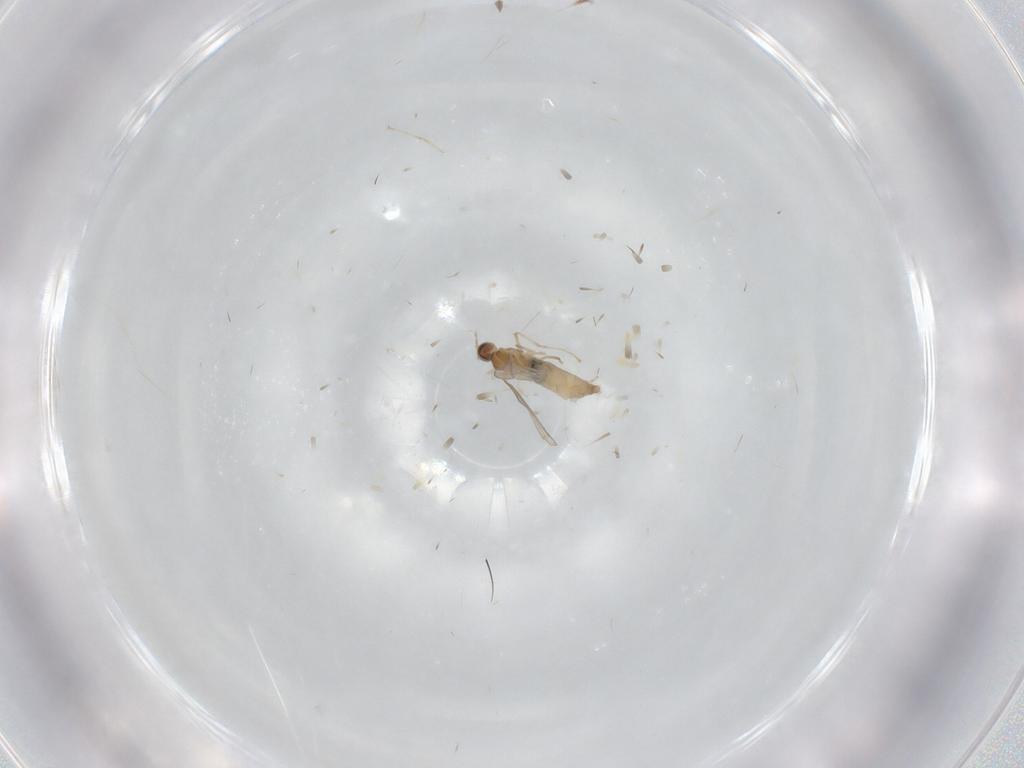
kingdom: Animalia
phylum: Arthropoda
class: Insecta
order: Diptera
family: Cecidomyiidae
